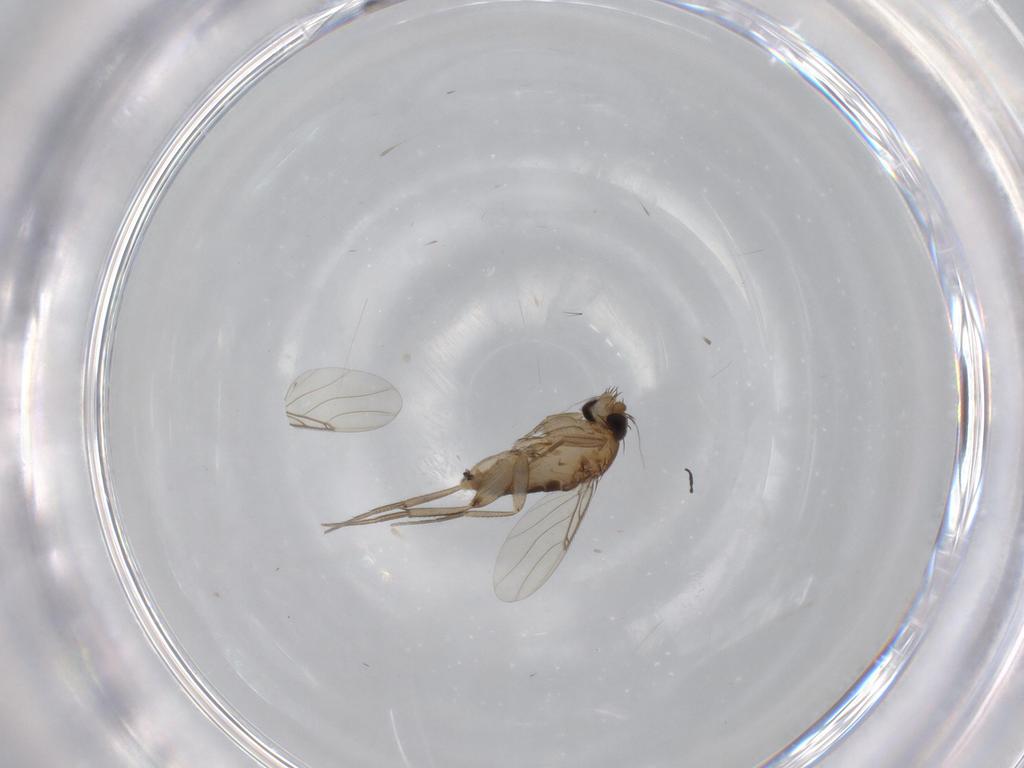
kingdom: Animalia
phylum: Arthropoda
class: Insecta
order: Diptera
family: Phoridae
